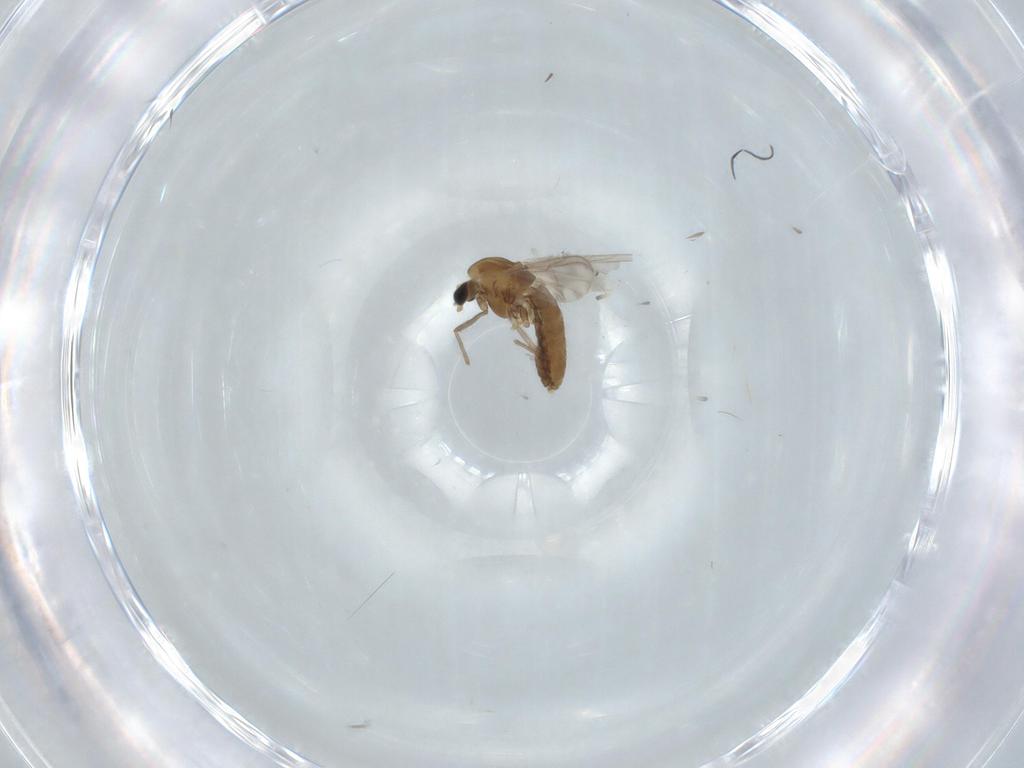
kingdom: Animalia
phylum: Arthropoda
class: Insecta
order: Diptera
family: Chironomidae
